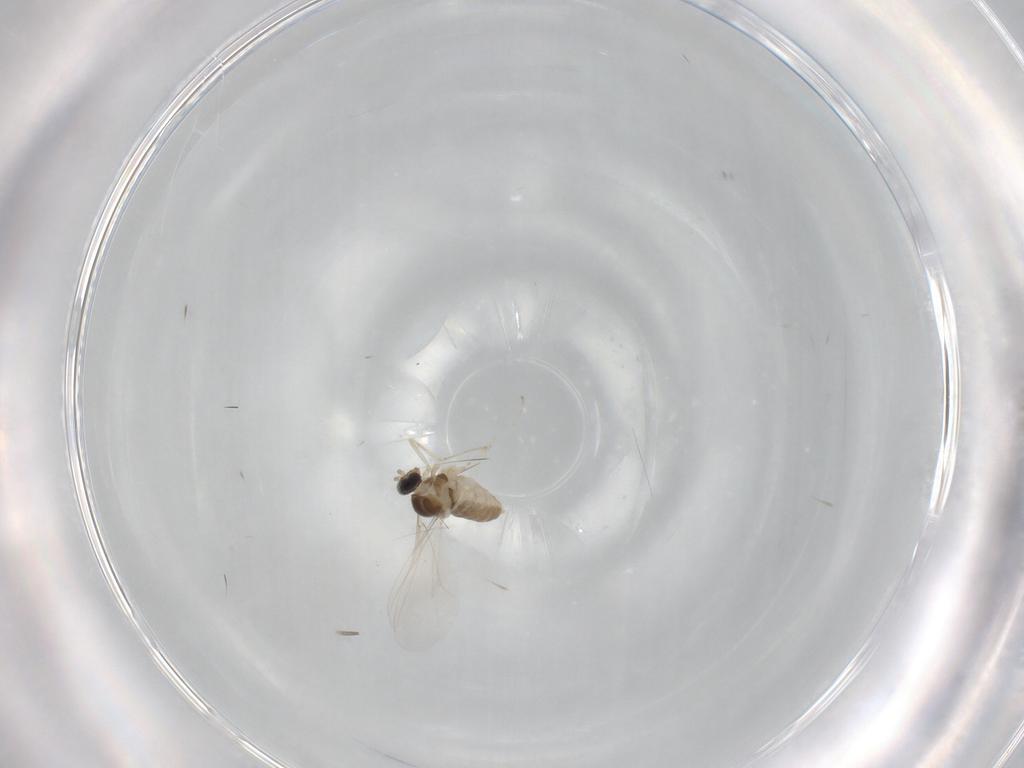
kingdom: Animalia
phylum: Arthropoda
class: Insecta
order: Diptera
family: Cecidomyiidae
